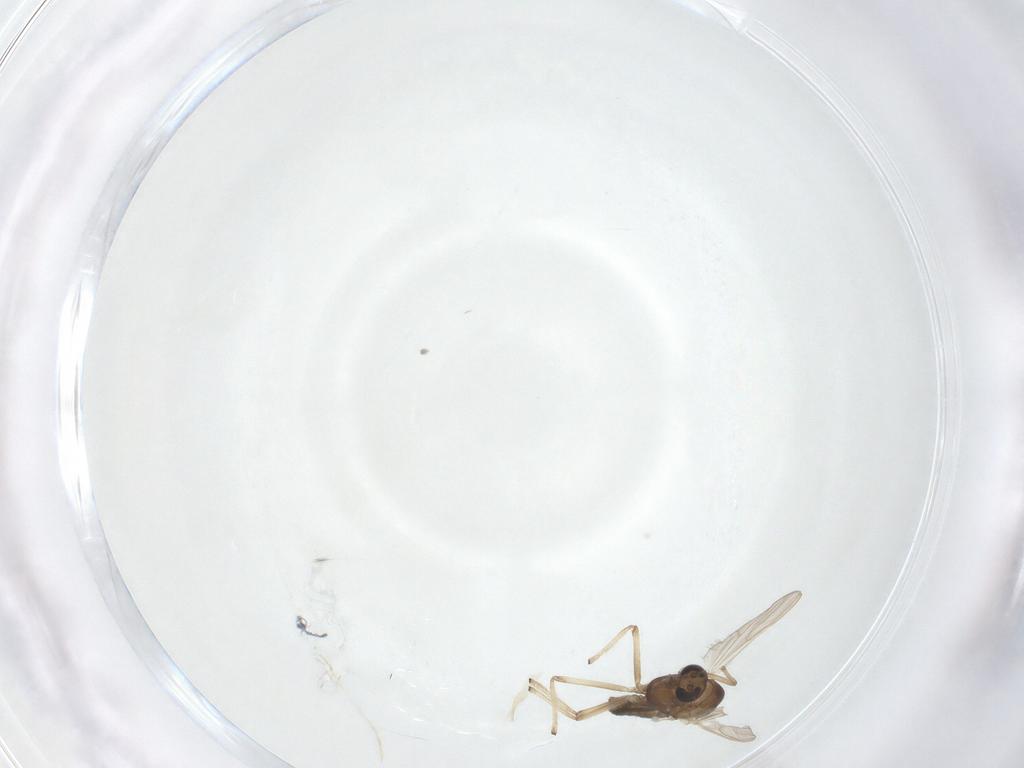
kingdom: Animalia
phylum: Arthropoda
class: Insecta
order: Diptera
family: Chironomidae
